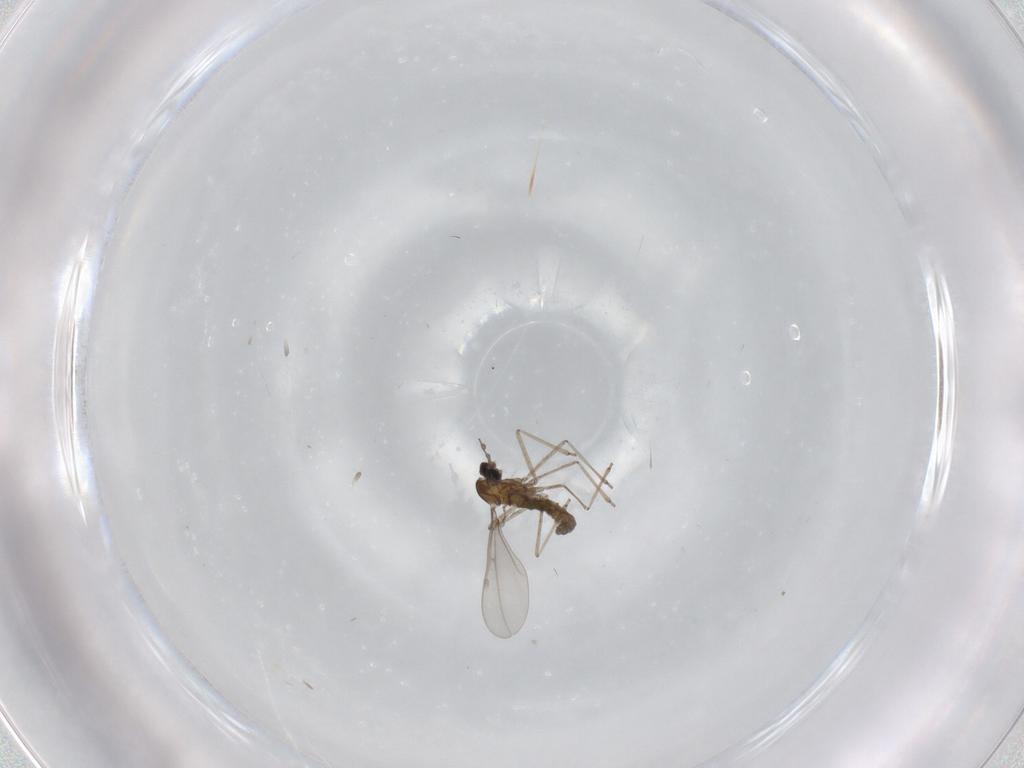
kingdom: Animalia
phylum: Arthropoda
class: Insecta
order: Diptera
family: Cecidomyiidae
